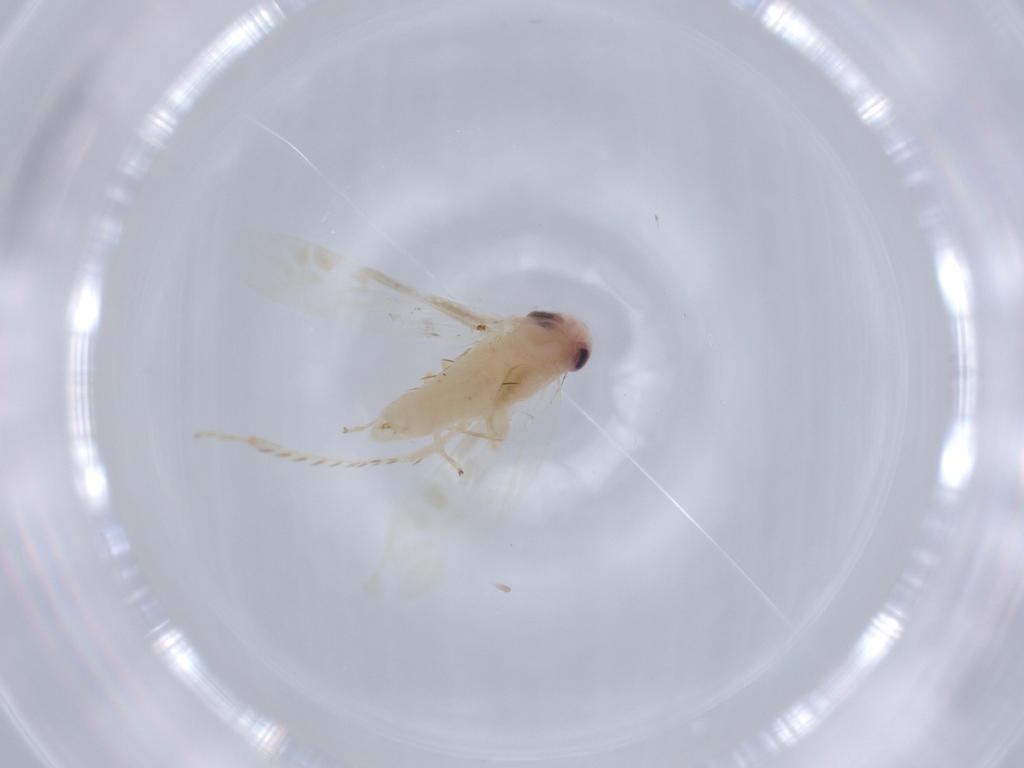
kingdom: Animalia
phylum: Arthropoda
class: Insecta
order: Hemiptera
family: Cicadellidae
